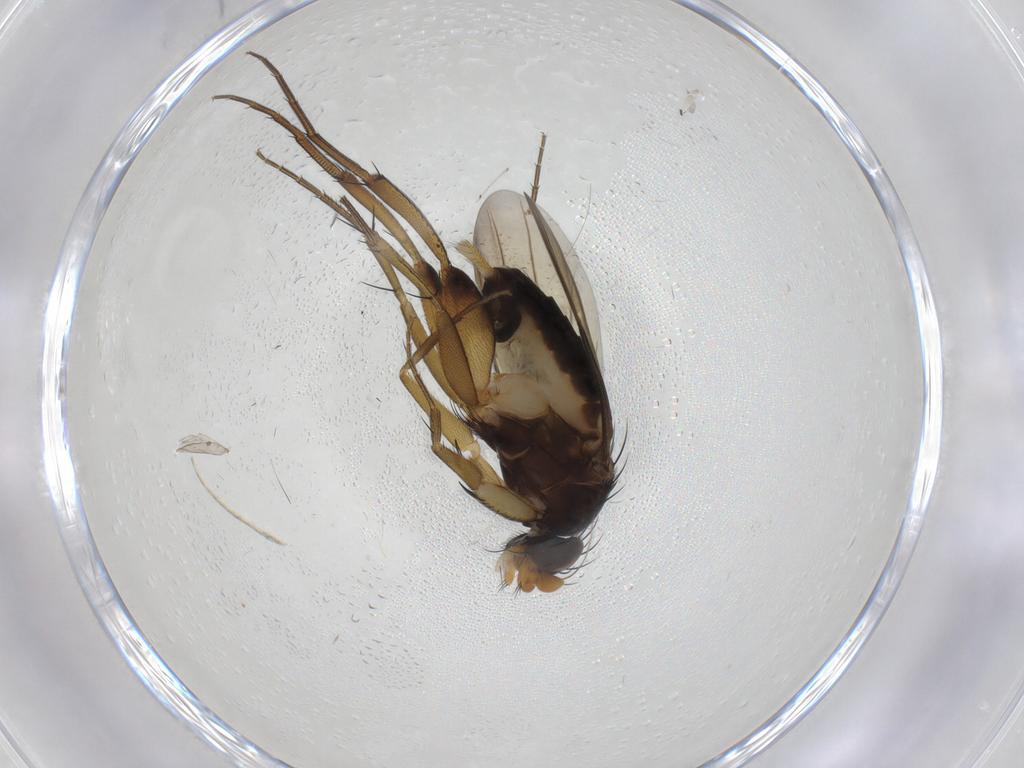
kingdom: Animalia
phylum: Arthropoda
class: Insecta
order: Diptera
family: Phoridae
